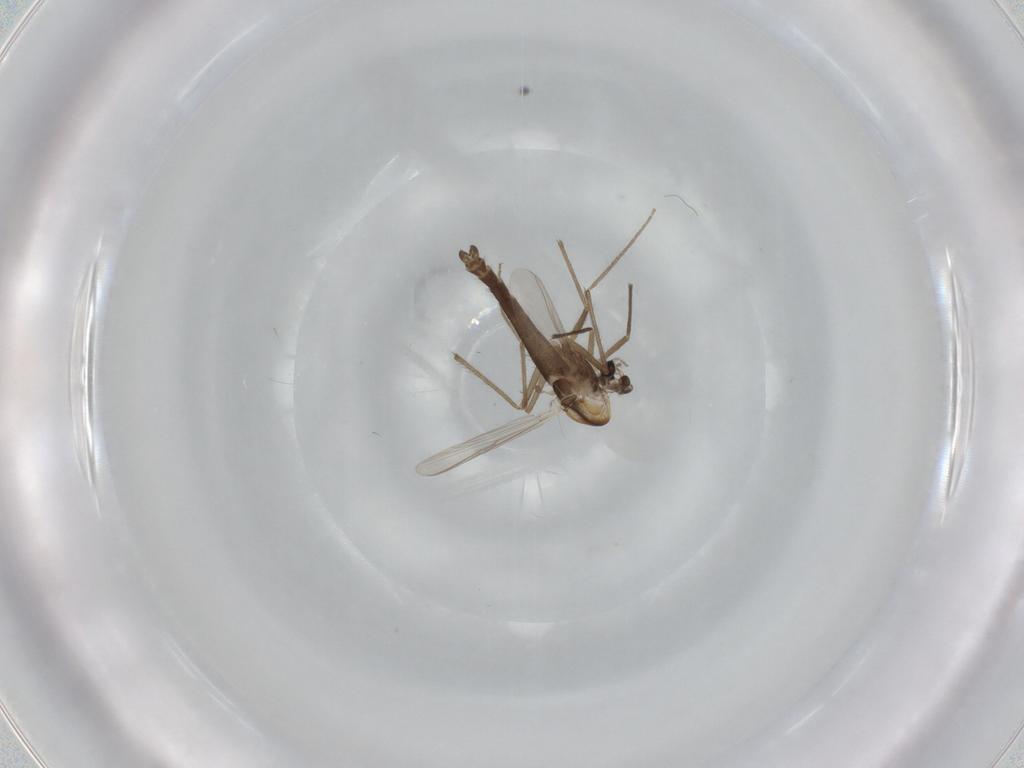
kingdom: Animalia
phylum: Arthropoda
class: Insecta
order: Diptera
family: Chironomidae
